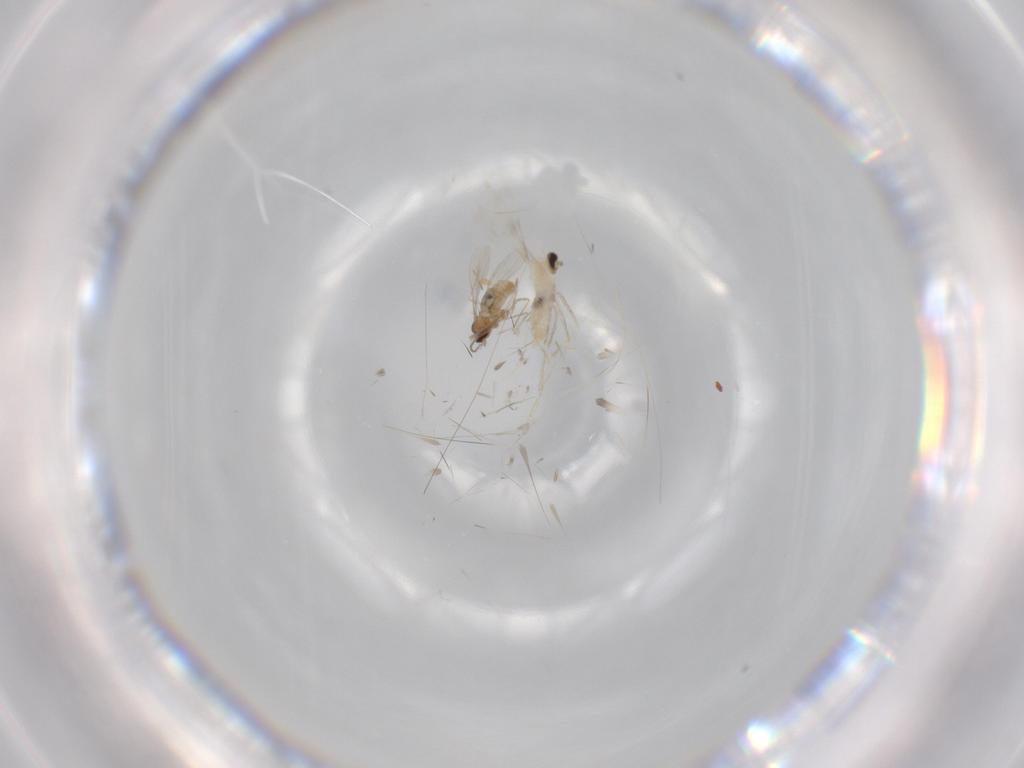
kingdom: Animalia
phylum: Arthropoda
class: Insecta
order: Diptera
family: Cecidomyiidae
